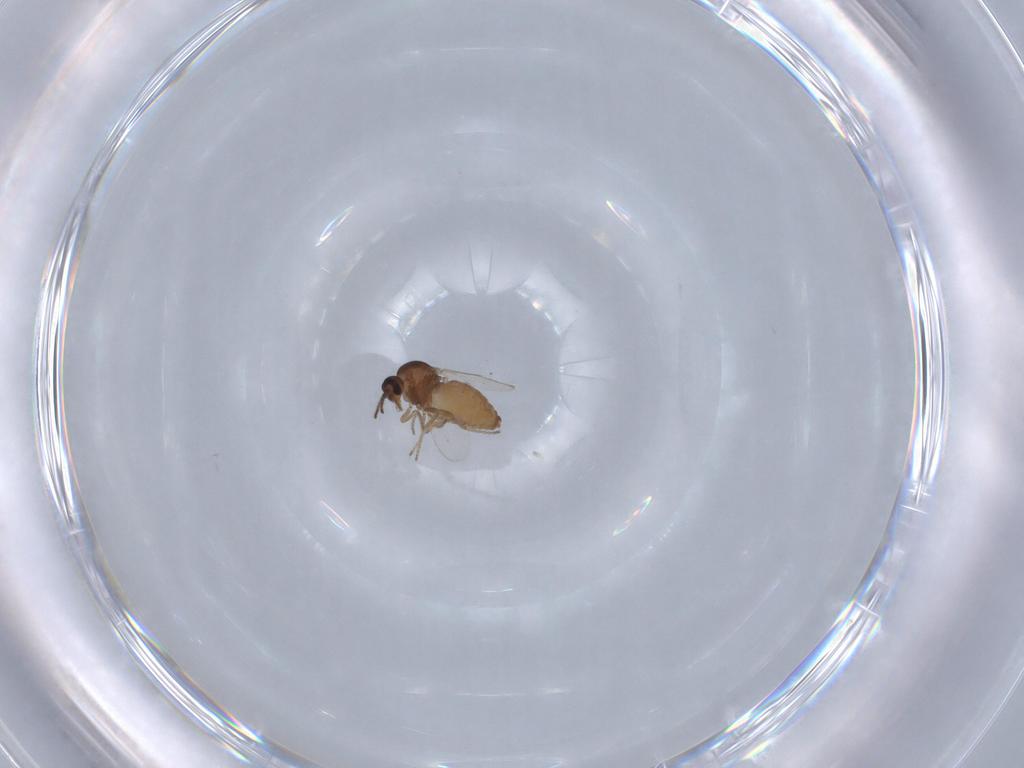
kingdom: Animalia
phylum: Arthropoda
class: Insecta
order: Diptera
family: Ceratopogonidae
